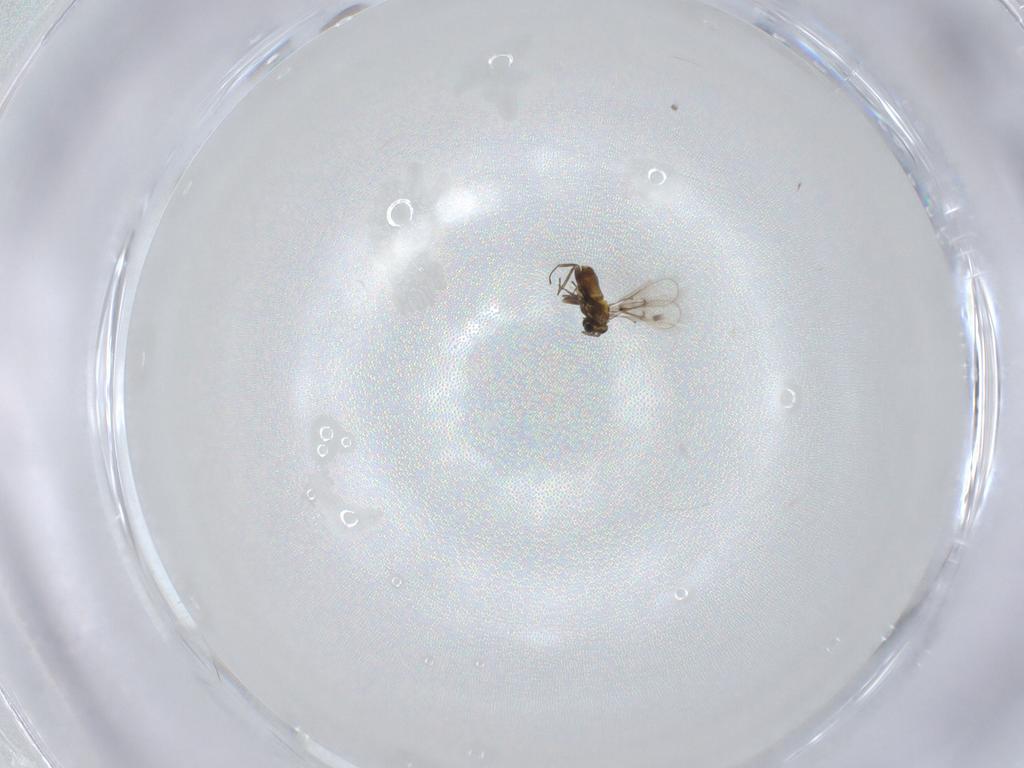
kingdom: Animalia
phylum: Arthropoda
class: Insecta
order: Hymenoptera
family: Trichogrammatidae
